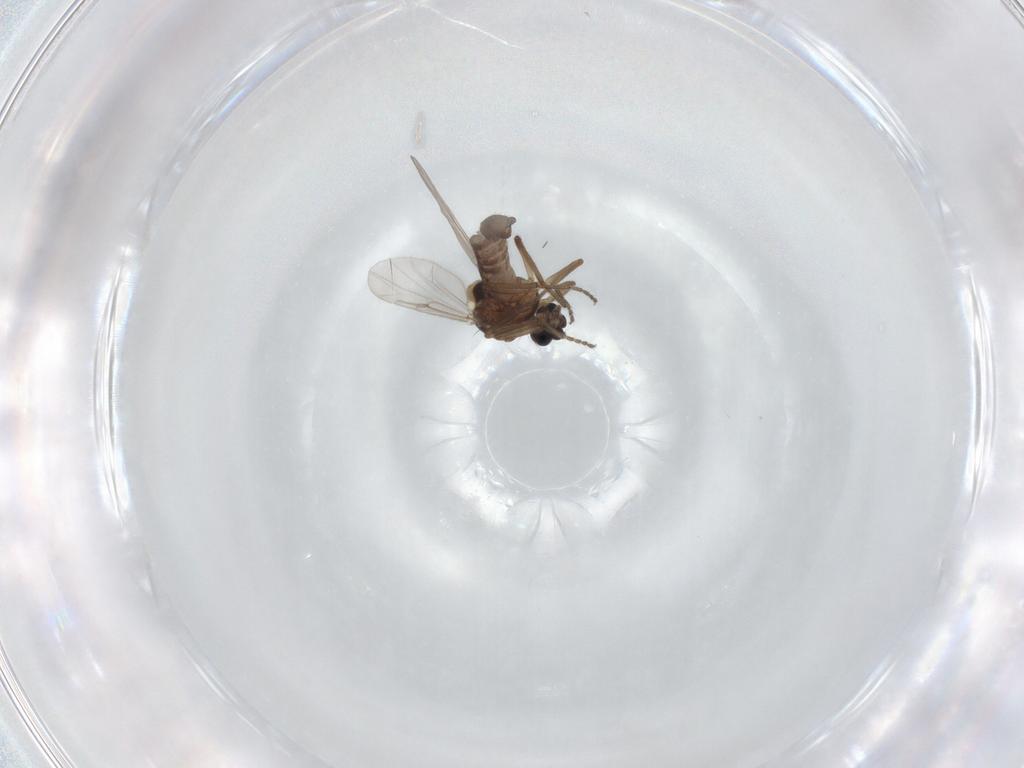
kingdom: Animalia
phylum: Arthropoda
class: Insecta
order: Diptera
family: Ceratopogonidae
